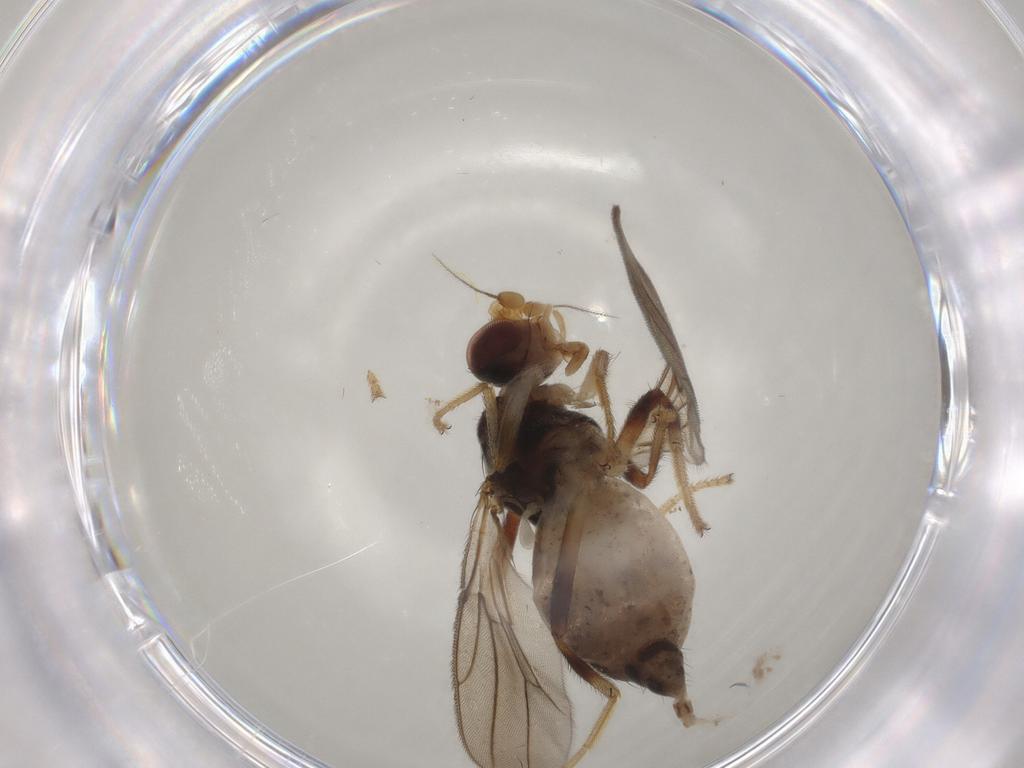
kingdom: Animalia
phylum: Arthropoda
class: Insecta
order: Diptera
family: Chloropidae
